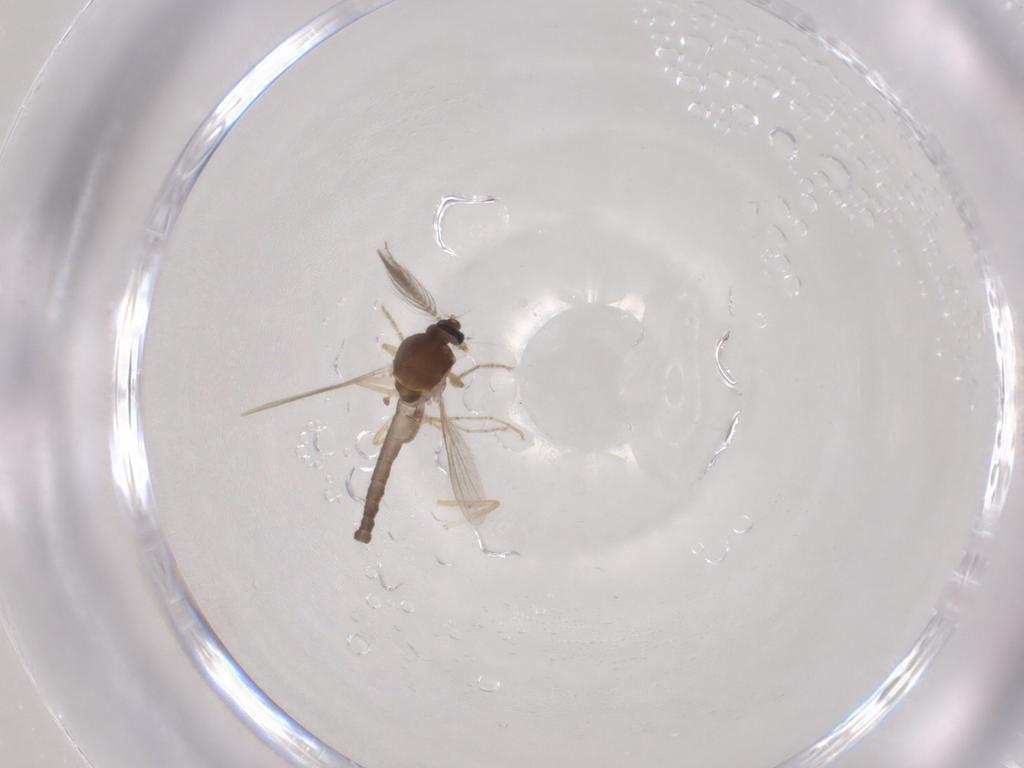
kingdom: Animalia
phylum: Arthropoda
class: Insecta
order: Diptera
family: Ceratopogonidae
